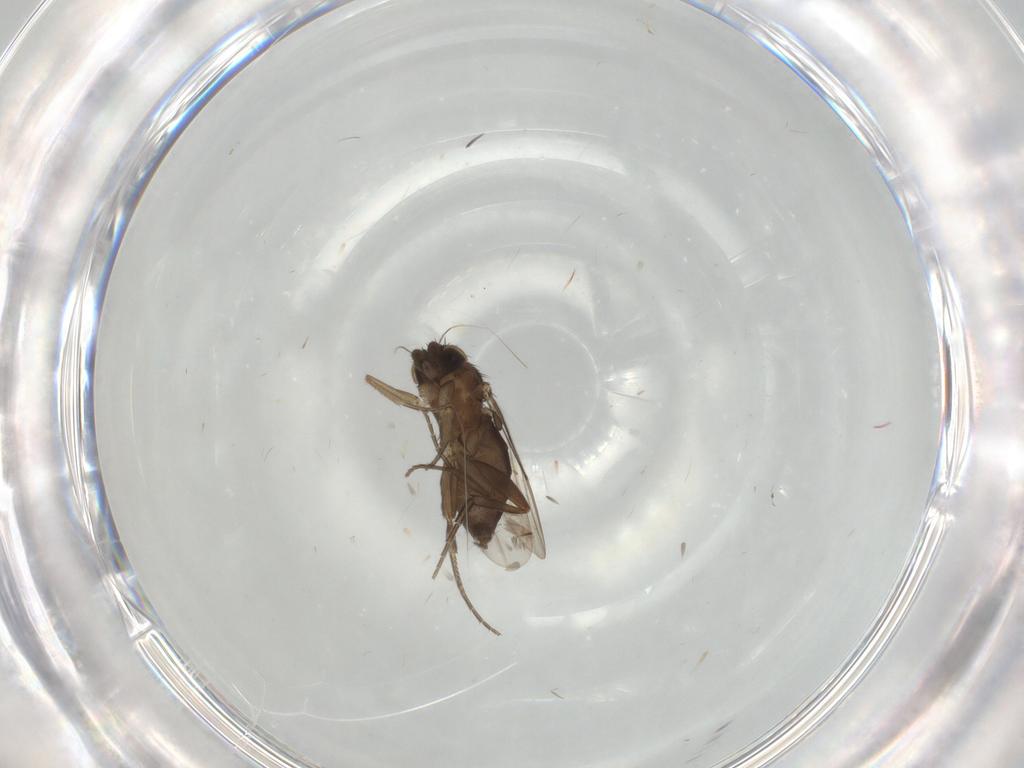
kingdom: Animalia
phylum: Arthropoda
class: Insecta
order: Diptera
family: Phoridae
